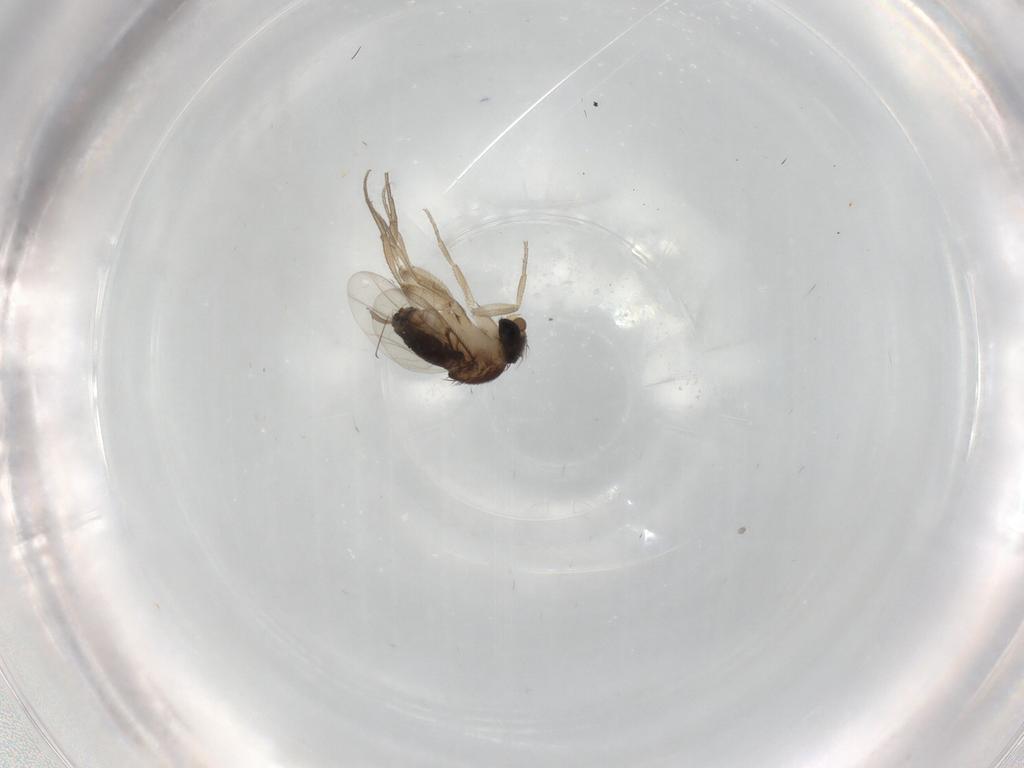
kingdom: Animalia
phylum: Arthropoda
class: Insecta
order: Diptera
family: Phoridae
